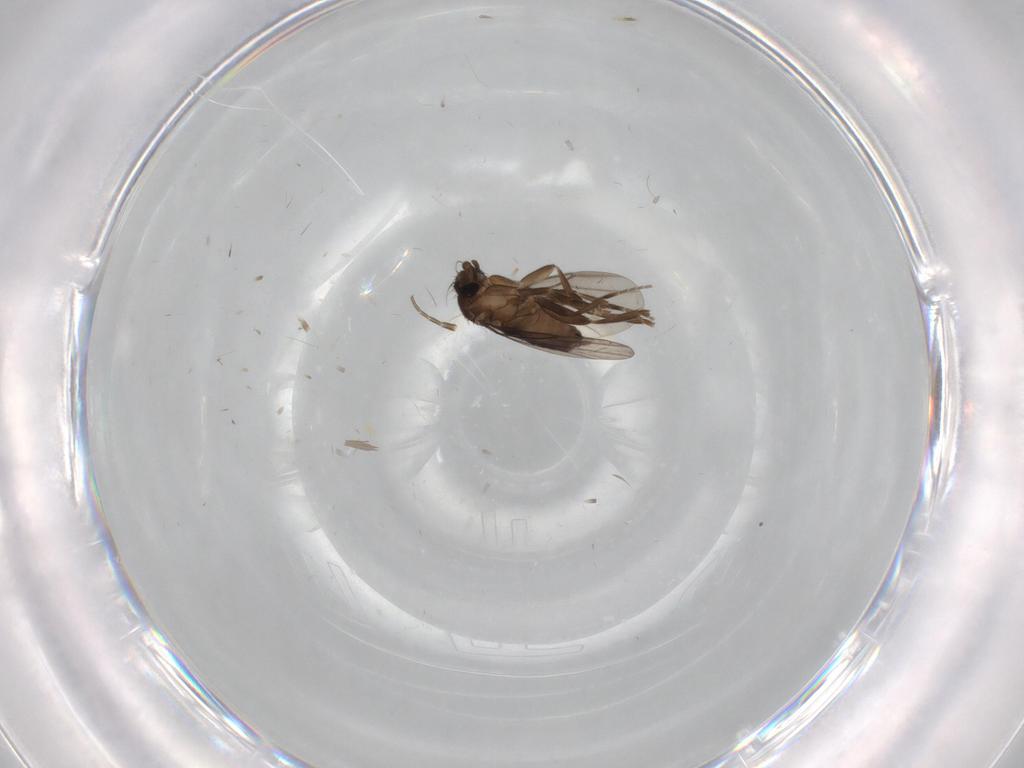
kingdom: Animalia
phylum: Arthropoda
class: Insecta
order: Diptera
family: Phoridae
